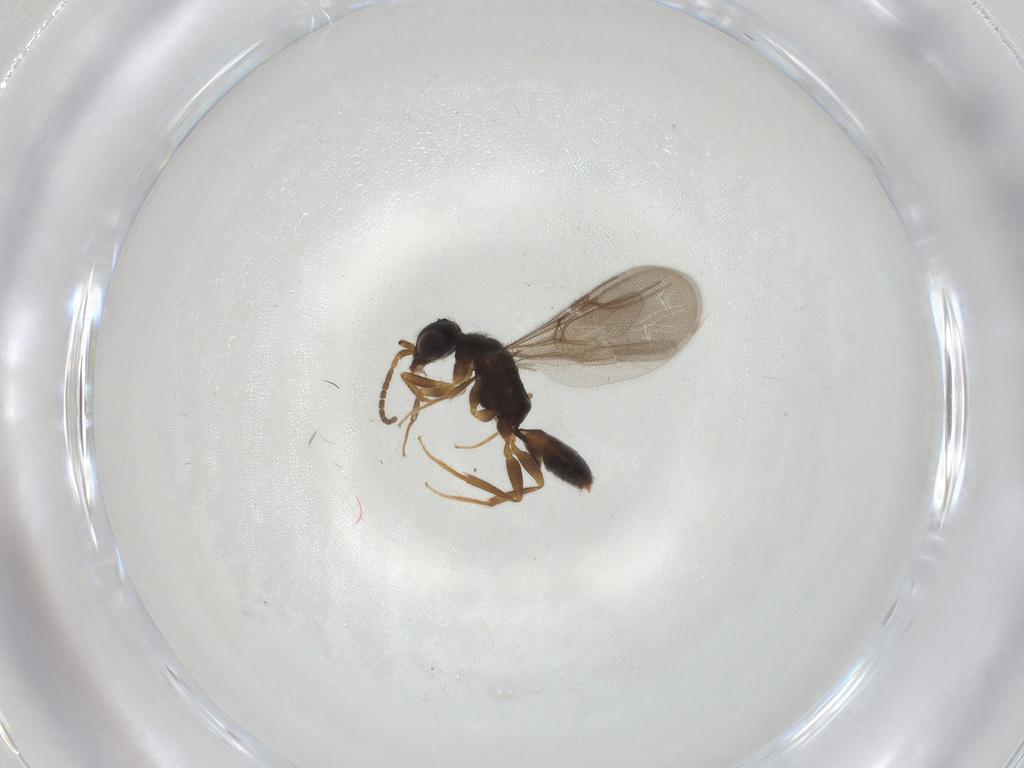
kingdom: Animalia
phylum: Arthropoda
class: Insecta
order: Hymenoptera
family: Bethylidae
